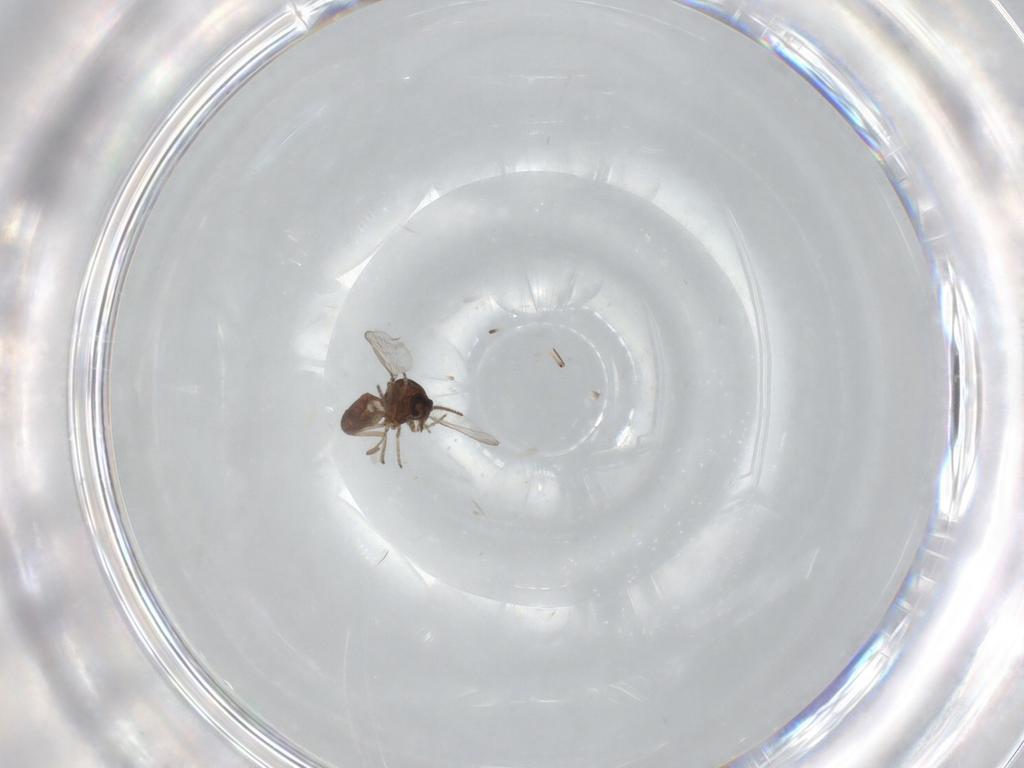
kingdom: Animalia
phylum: Arthropoda
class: Insecta
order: Diptera
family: Ceratopogonidae
